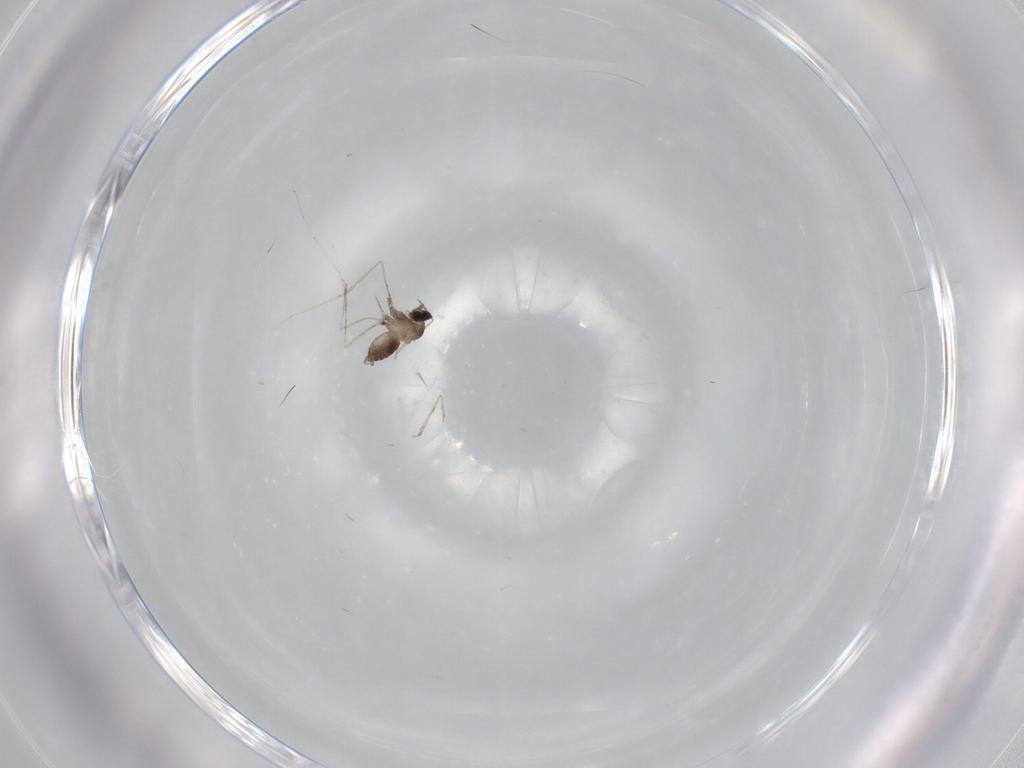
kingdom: Animalia
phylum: Arthropoda
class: Insecta
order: Diptera
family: Cecidomyiidae
